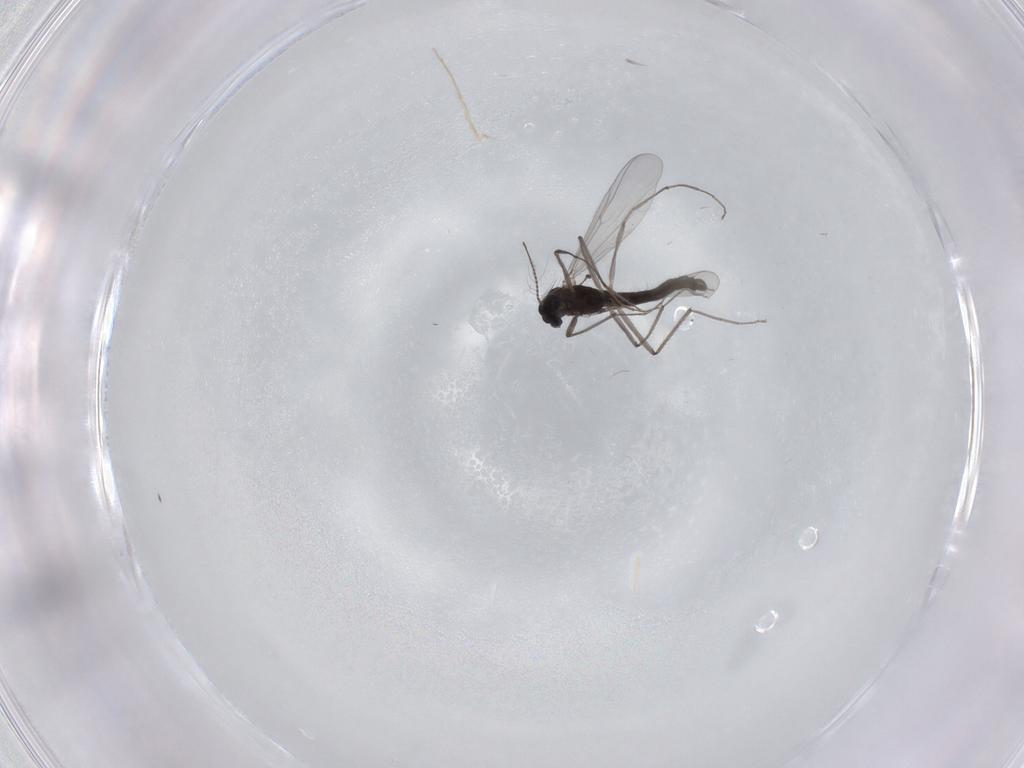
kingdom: Animalia
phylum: Arthropoda
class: Insecta
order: Diptera
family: Chironomidae
